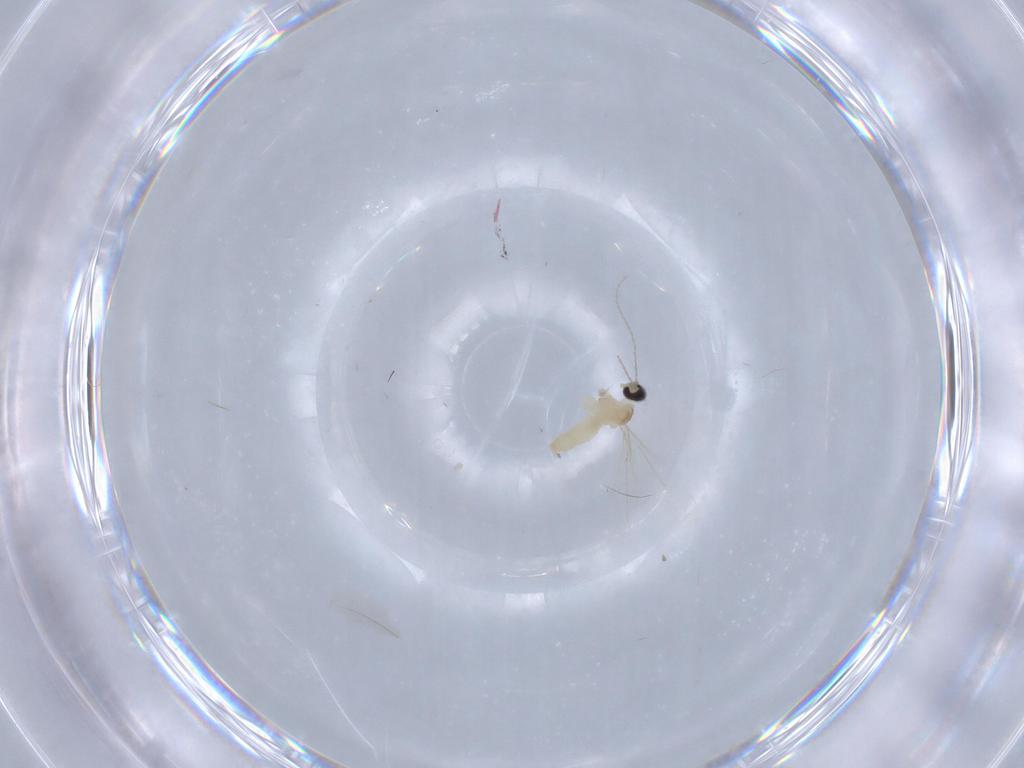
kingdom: Animalia
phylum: Arthropoda
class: Insecta
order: Diptera
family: Cecidomyiidae
